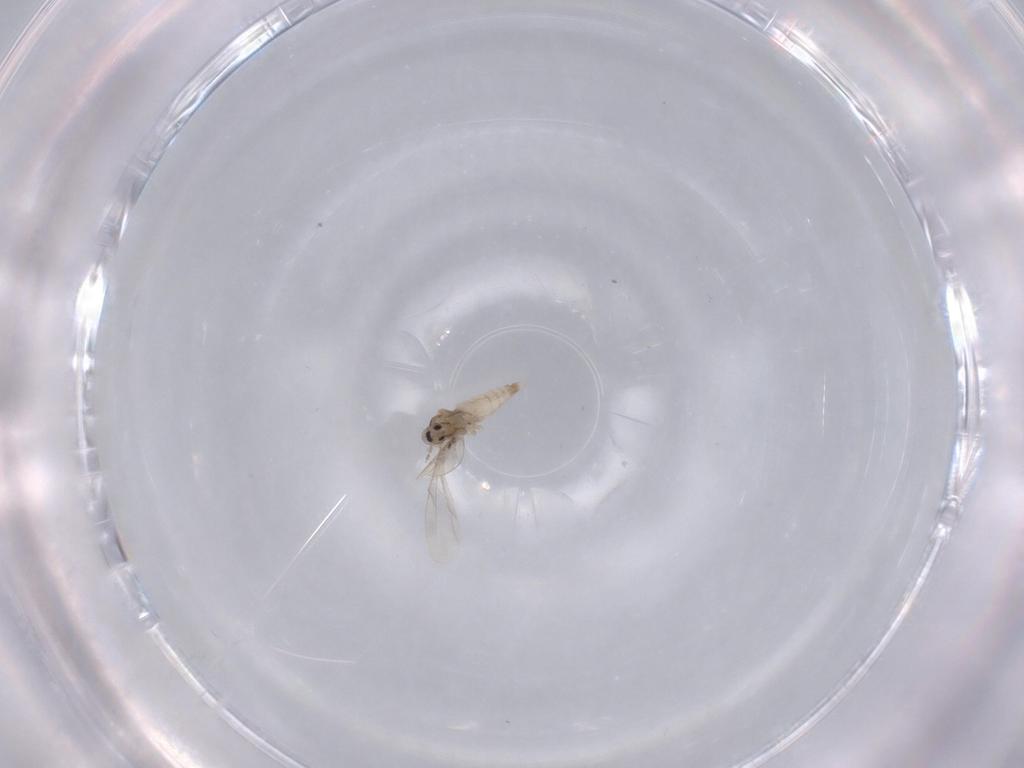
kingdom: Animalia
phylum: Arthropoda
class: Insecta
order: Diptera
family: Cecidomyiidae
